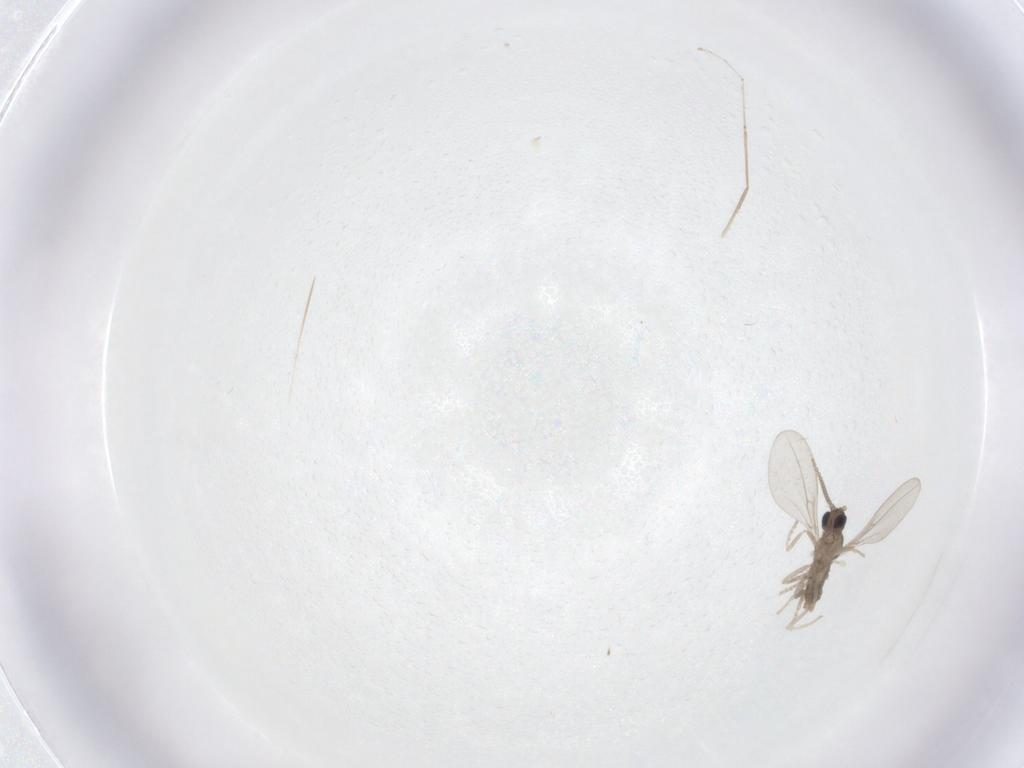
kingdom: Animalia
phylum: Arthropoda
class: Insecta
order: Diptera
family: Cecidomyiidae
